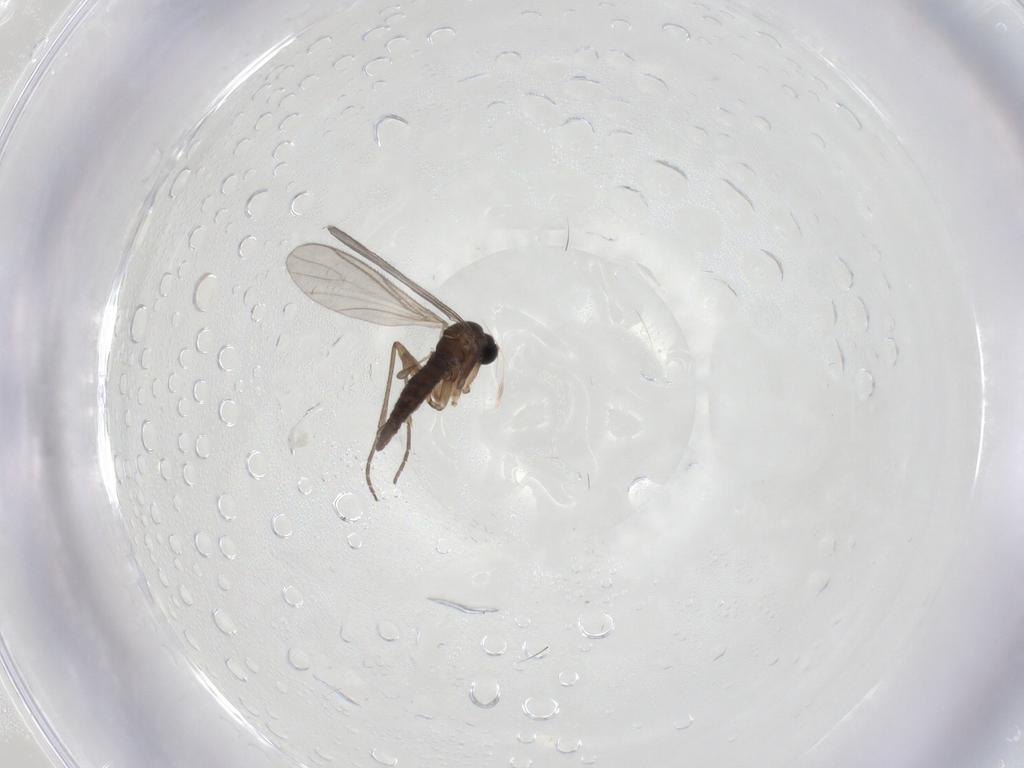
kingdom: Animalia
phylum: Arthropoda
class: Insecta
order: Diptera
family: Sciaridae
